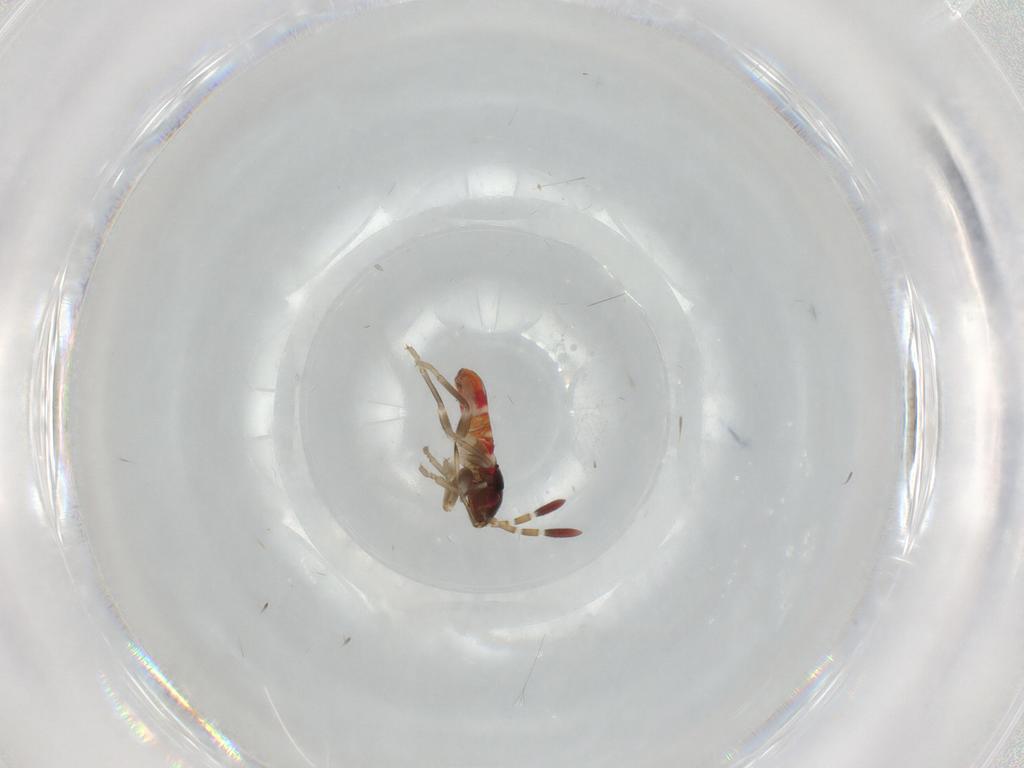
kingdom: Animalia
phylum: Arthropoda
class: Insecta
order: Hemiptera
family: Rhyparochromidae
